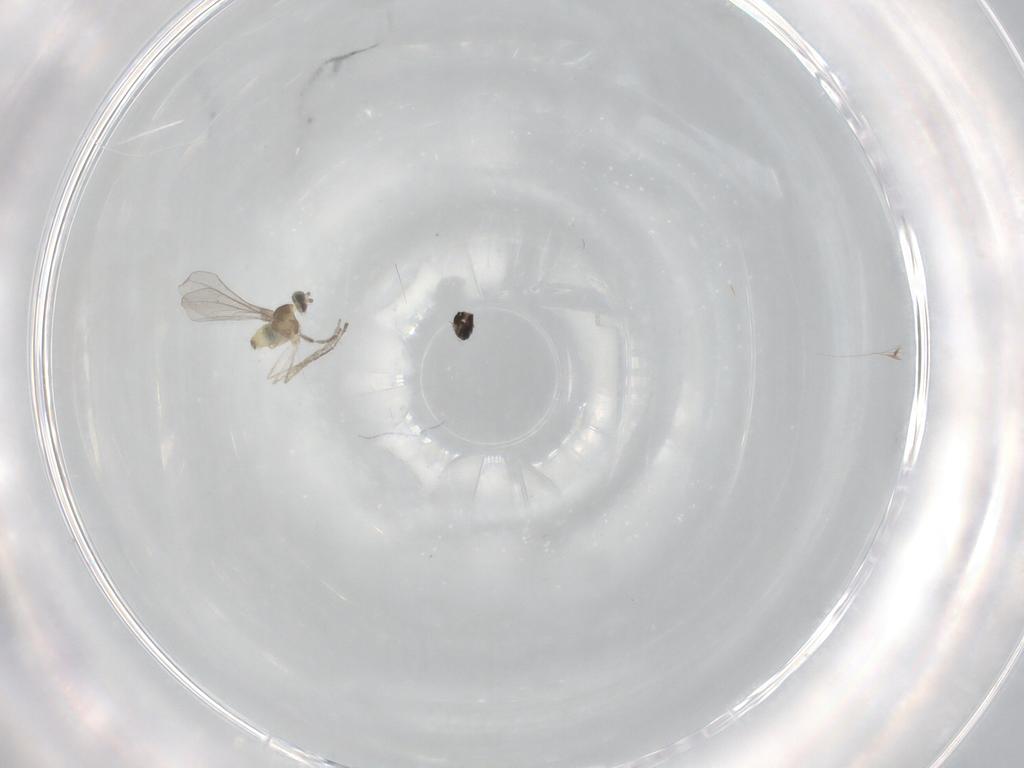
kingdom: Animalia
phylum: Arthropoda
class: Insecta
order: Diptera
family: Cecidomyiidae
